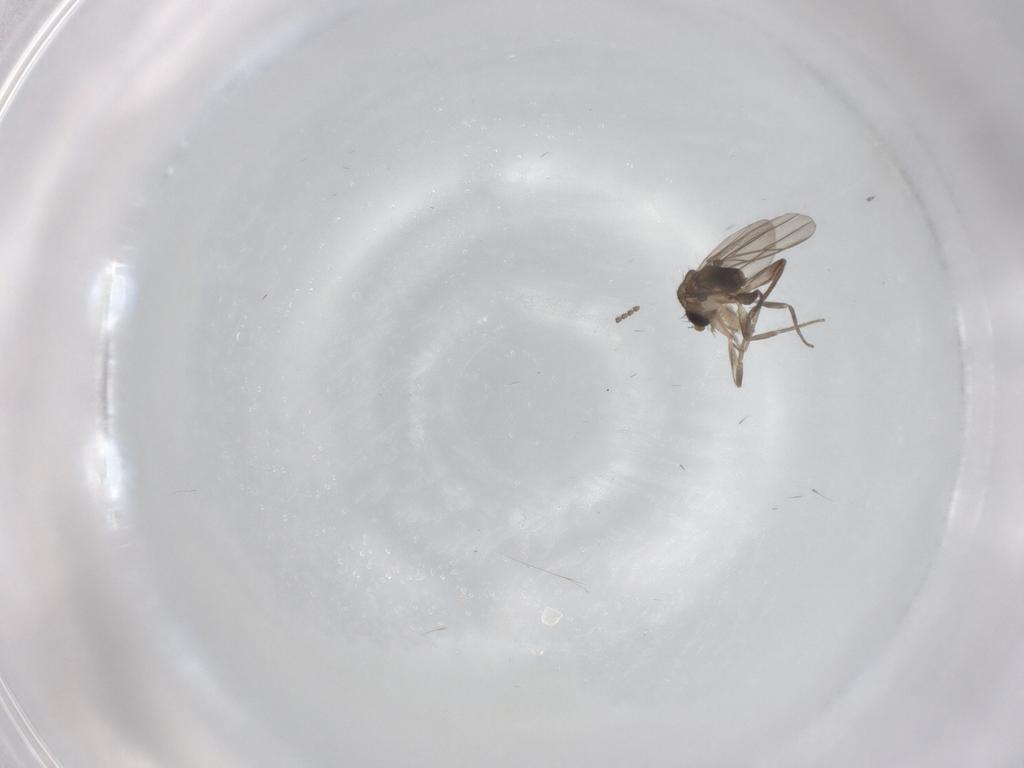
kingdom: Animalia
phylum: Arthropoda
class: Insecta
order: Diptera
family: Phoridae
